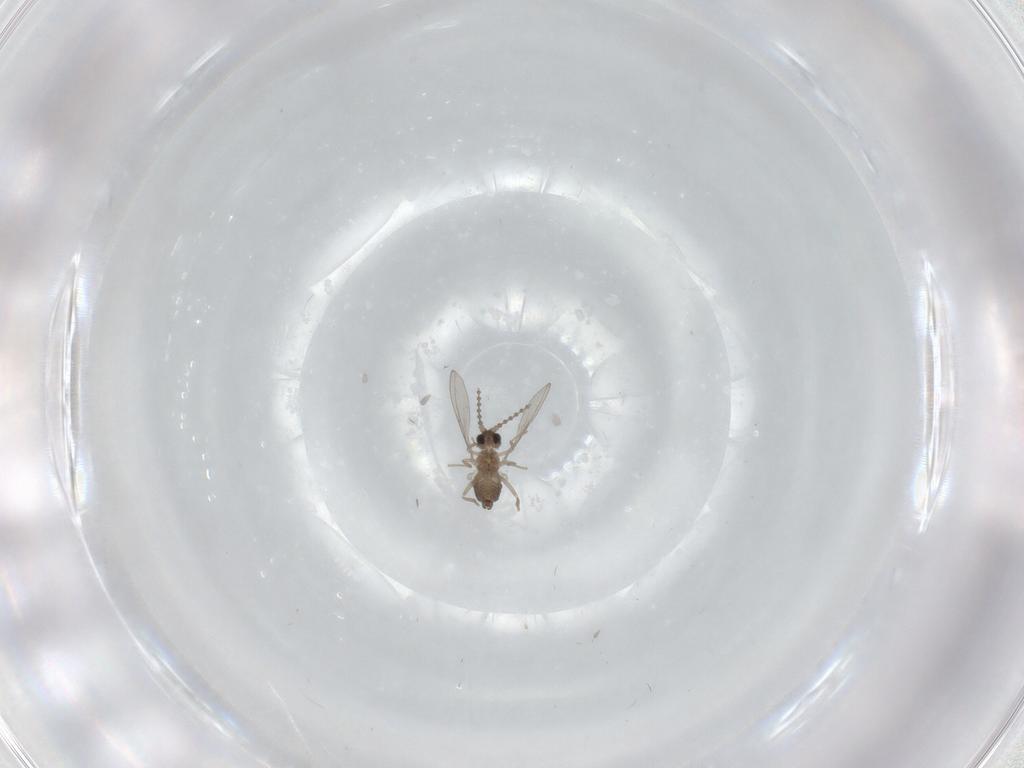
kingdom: Animalia
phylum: Arthropoda
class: Insecta
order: Diptera
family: Cecidomyiidae
